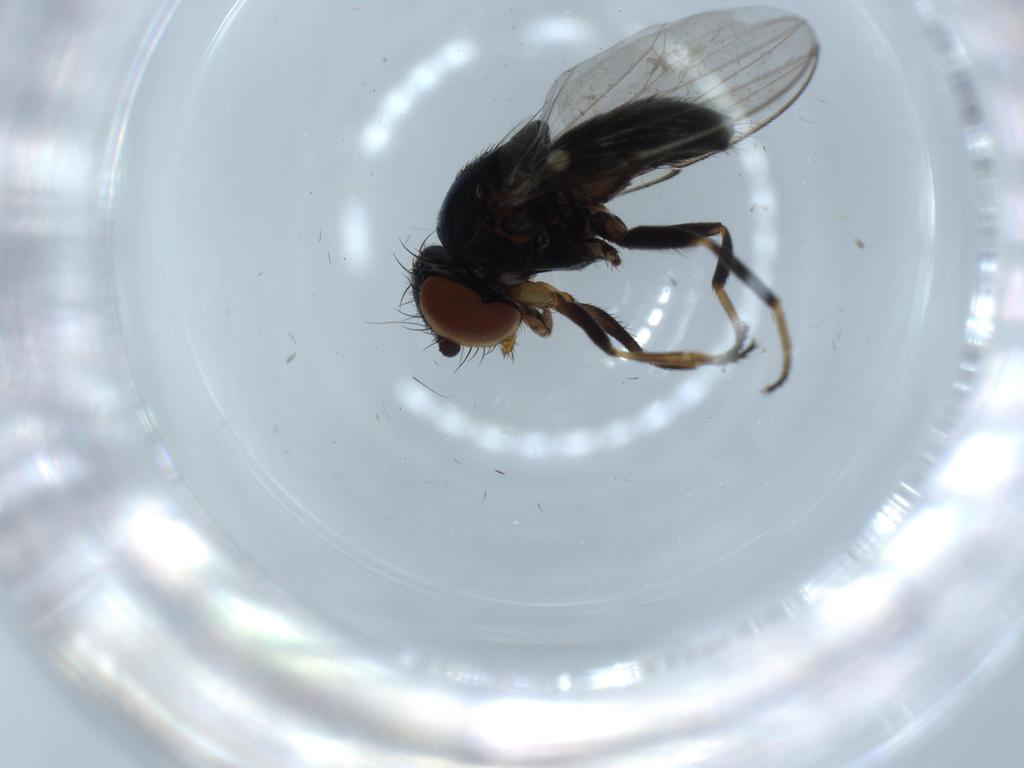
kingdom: Animalia
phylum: Arthropoda
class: Insecta
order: Diptera
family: Milichiidae
